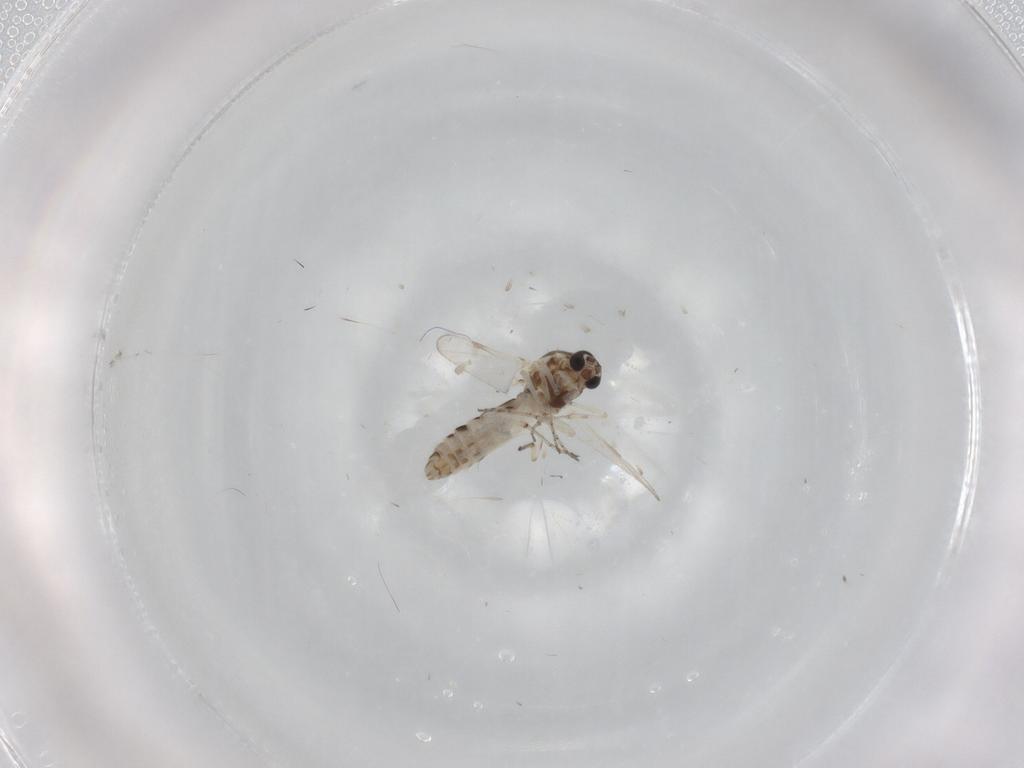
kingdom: Animalia
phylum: Arthropoda
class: Insecta
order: Diptera
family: Ceratopogonidae
